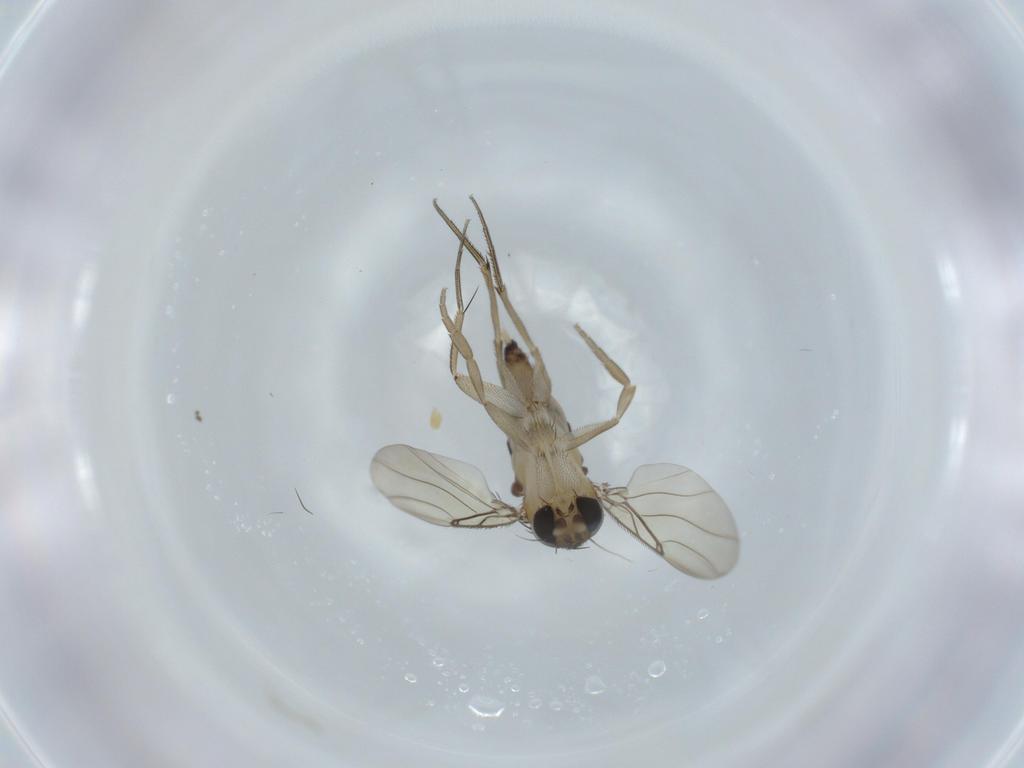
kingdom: Animalia
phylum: Arthropoda
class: Insecta
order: Diptera
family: Phoridae
